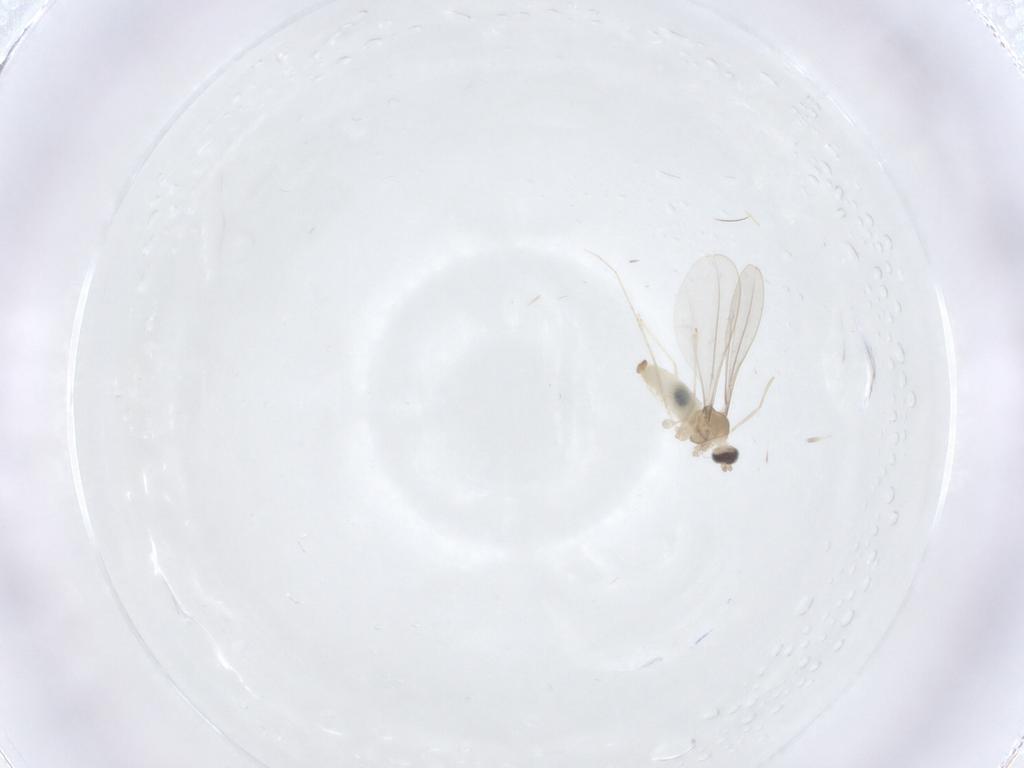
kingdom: Animalia
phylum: Arthropoda
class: Insecta
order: Diptera
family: Cecidomyiidae
